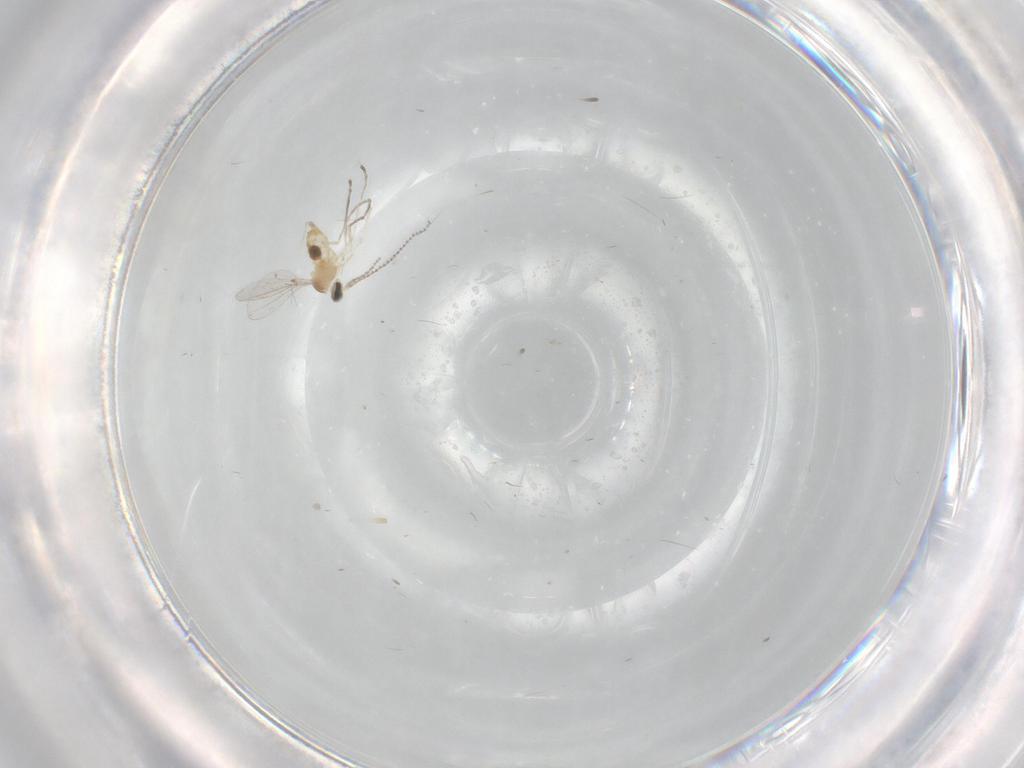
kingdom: Animalia
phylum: Arthropoda
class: Insecta
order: Diptera
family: Cecidomyiidae
